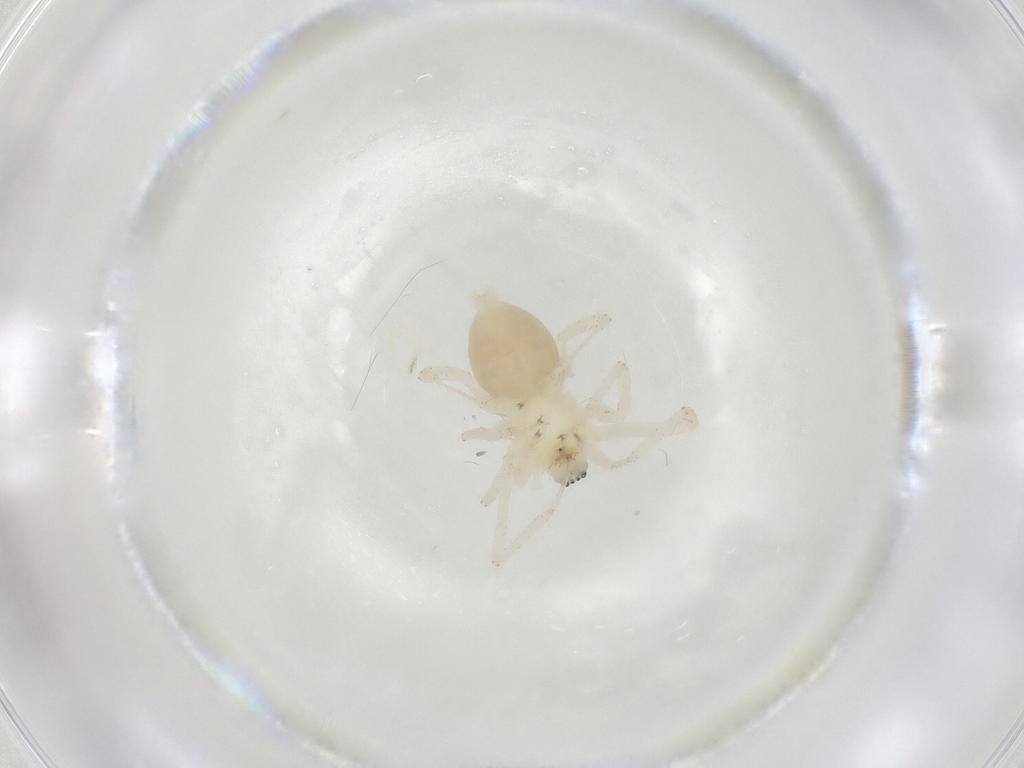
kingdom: Animalia
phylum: Arthropoda
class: Arachnida
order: Araneae
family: Anyphaenidae
